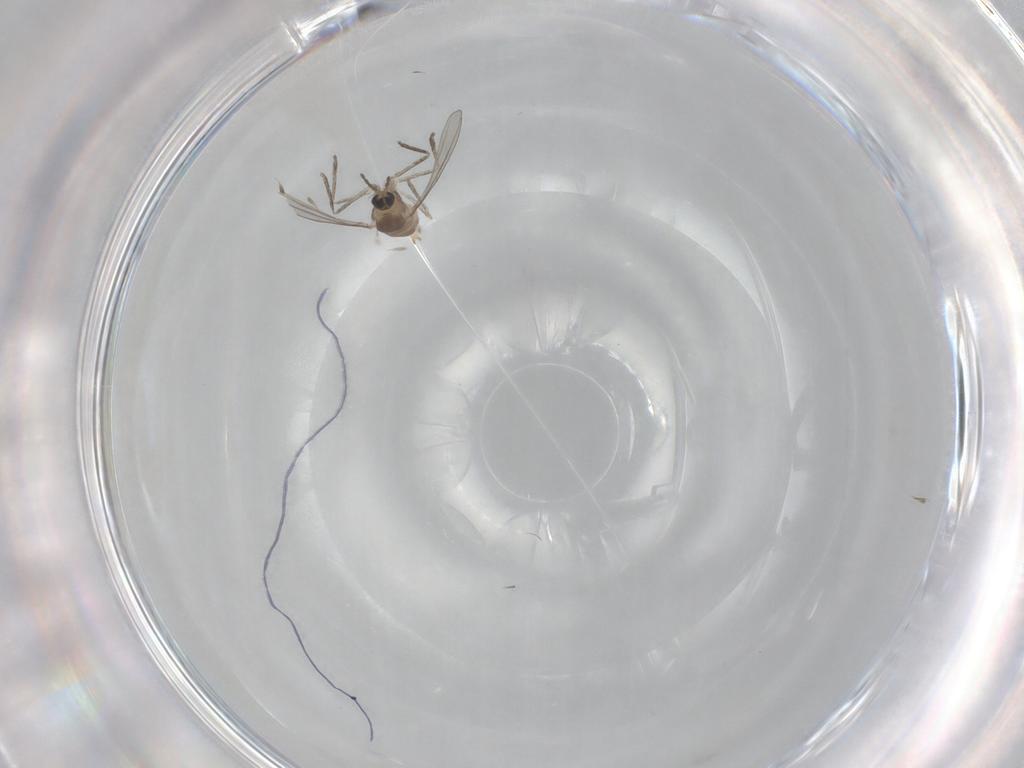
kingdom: Animalia
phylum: Arthropoda
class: Insecta
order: Diptera
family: Cecidomyiidae
